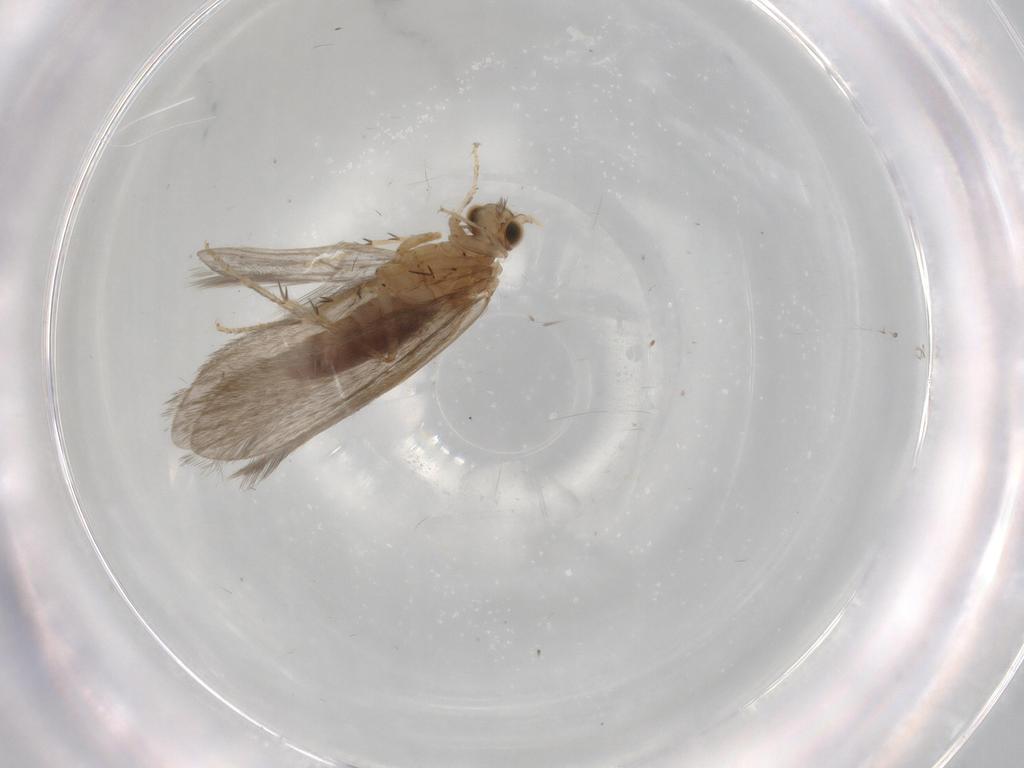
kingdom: Animalia
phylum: Arthropoda
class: Insecta
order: Trichoptera
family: Glossosomatidae
